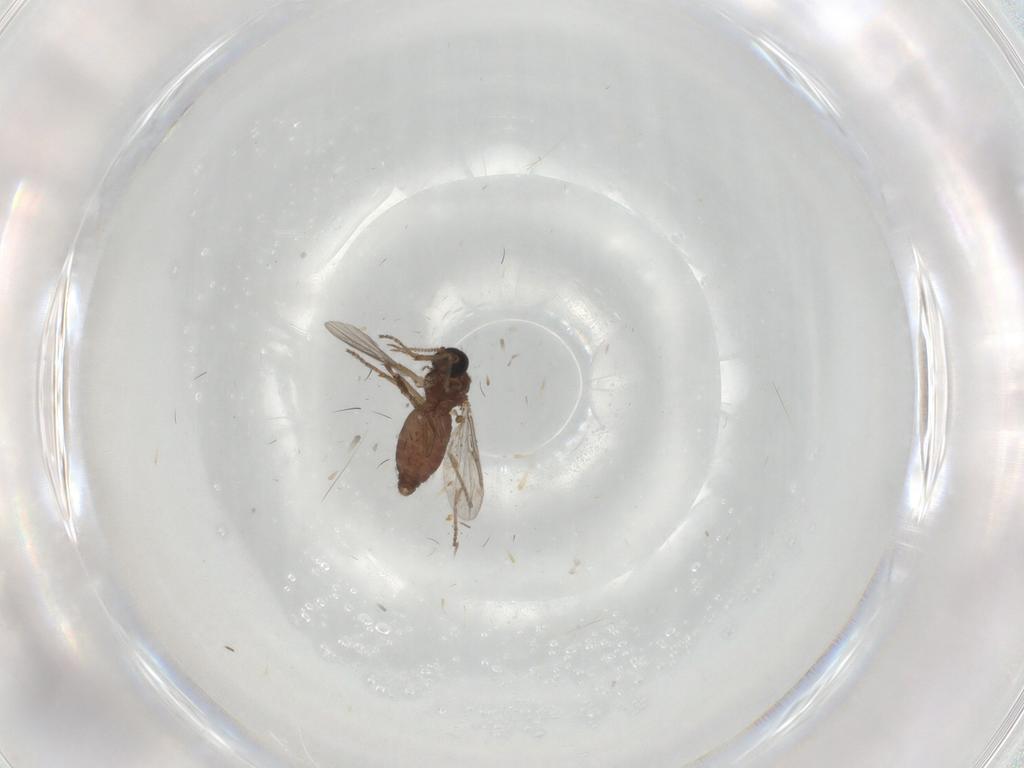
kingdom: Animalia
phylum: Arthropoda
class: Insecta
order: Diptera
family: Ceratopogonidae
